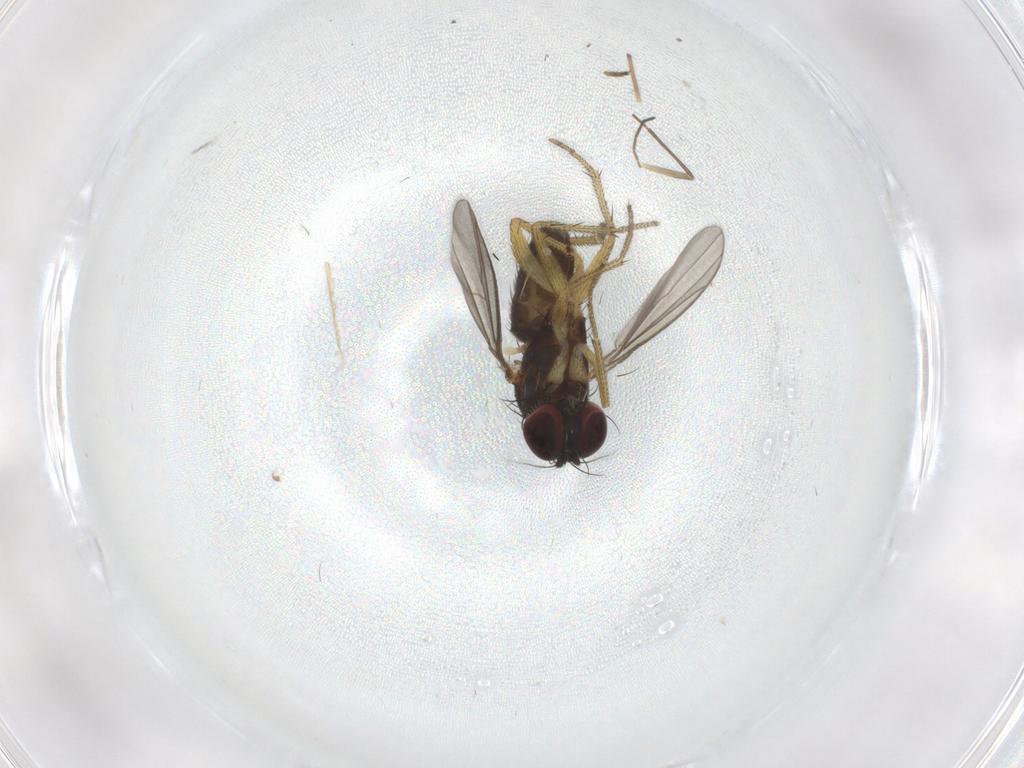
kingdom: Animalia
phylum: Arthropoda
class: Insecta
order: Diptera
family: Chironomidae
